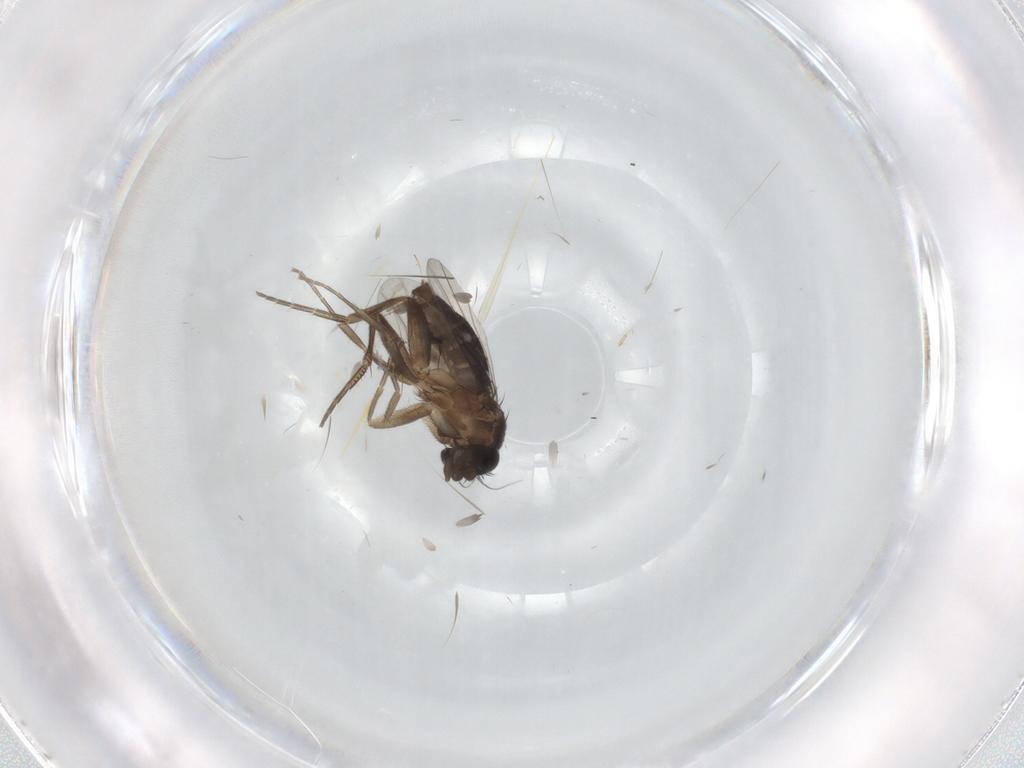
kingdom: Animalia
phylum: Arthropoda
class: Insecta
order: Diptera
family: Phoridae
